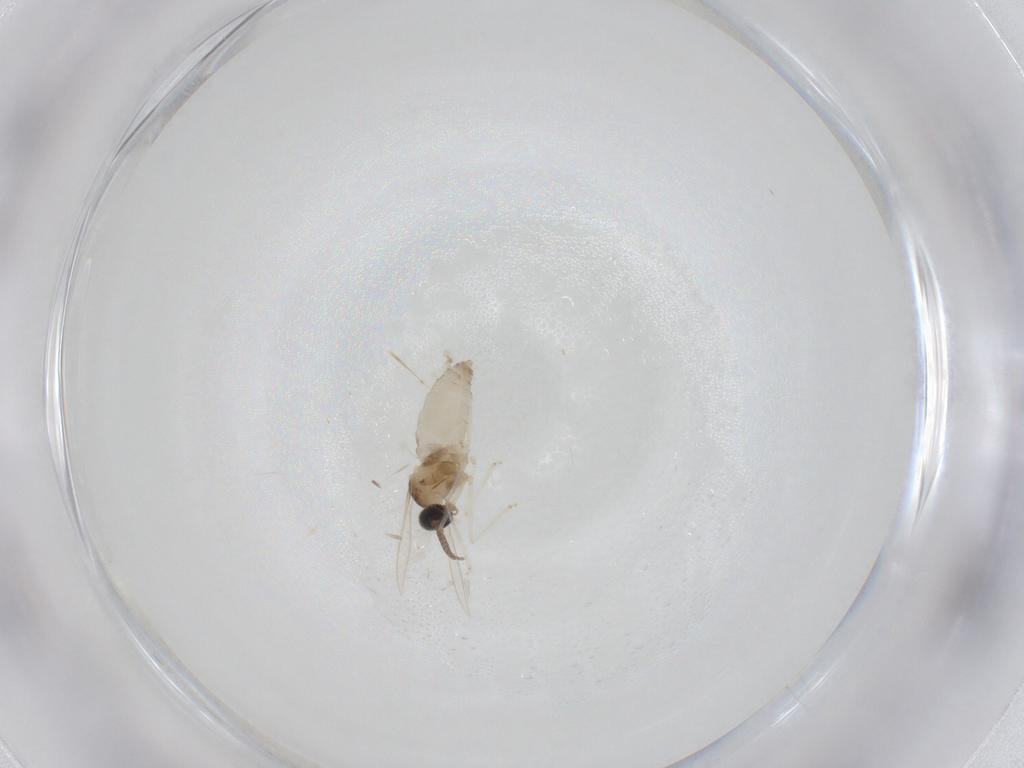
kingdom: Animalia
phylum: Arthropoda
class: Insecta
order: Diptera
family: Cecidomyiidae
